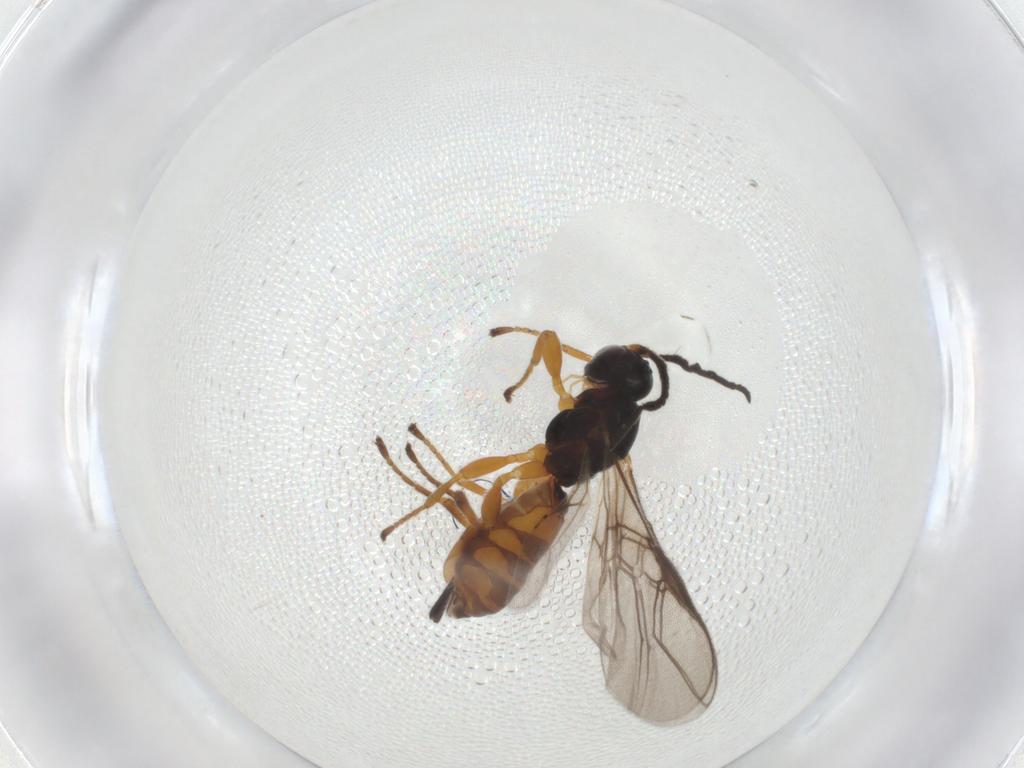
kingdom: Animalia
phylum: Arthropoda
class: Insecta
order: Hymenoptera
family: Braconidae
